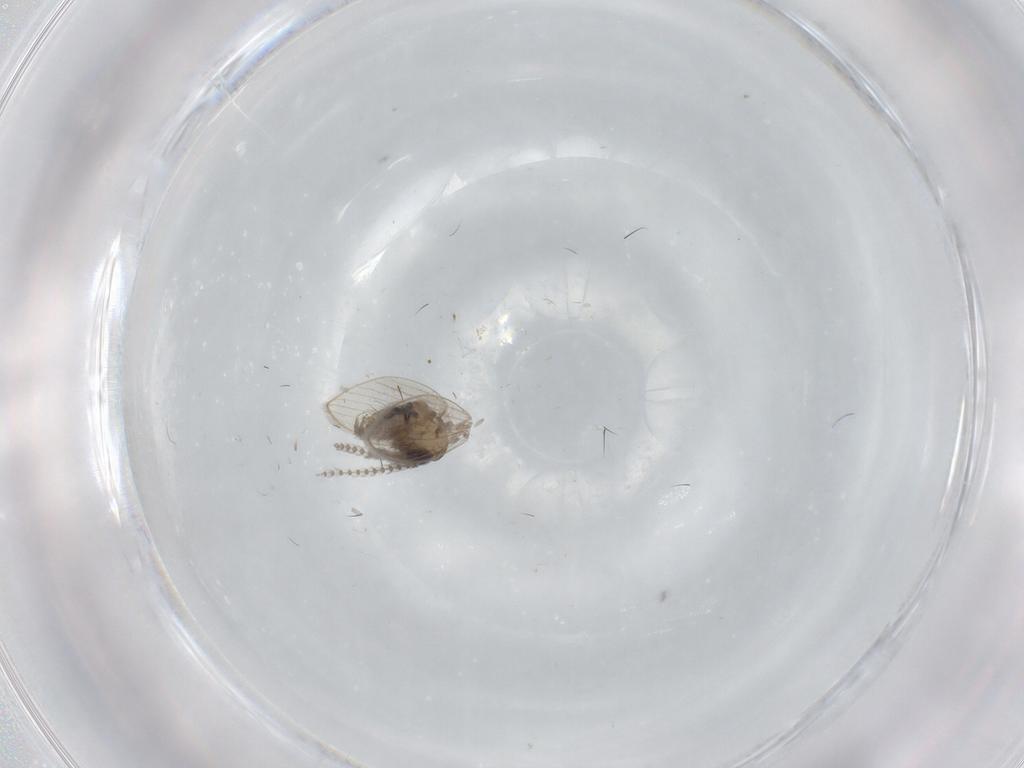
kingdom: Animalia
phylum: Arthropoda
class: Insecta
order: Diptera
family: Psychodidae
